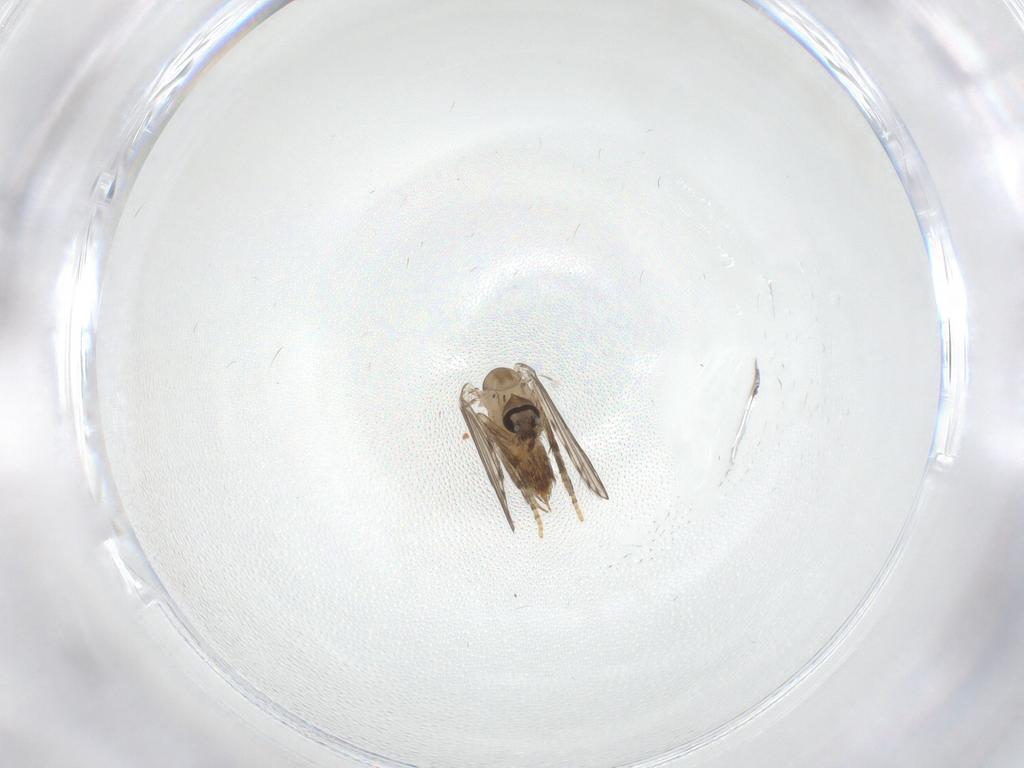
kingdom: Animalia
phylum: Arthropoda
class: Insecta
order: Diptera
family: Psychodidae
